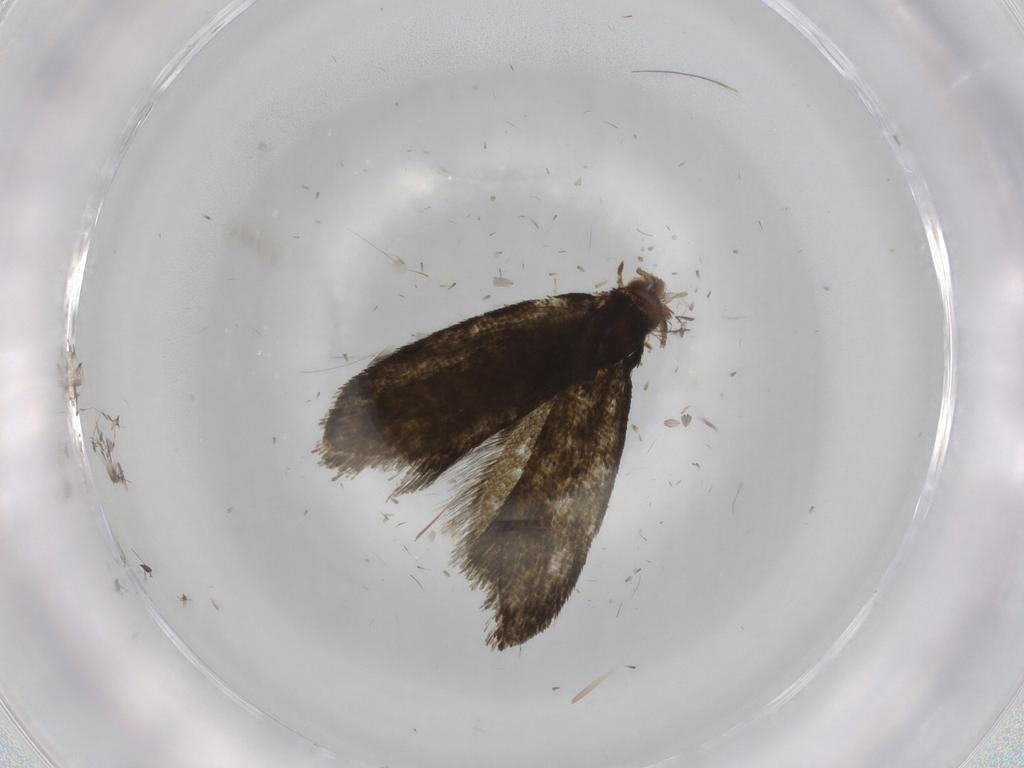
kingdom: Animalia
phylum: Arthropoda
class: Insecta
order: Lepidoptera
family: Tineidae
